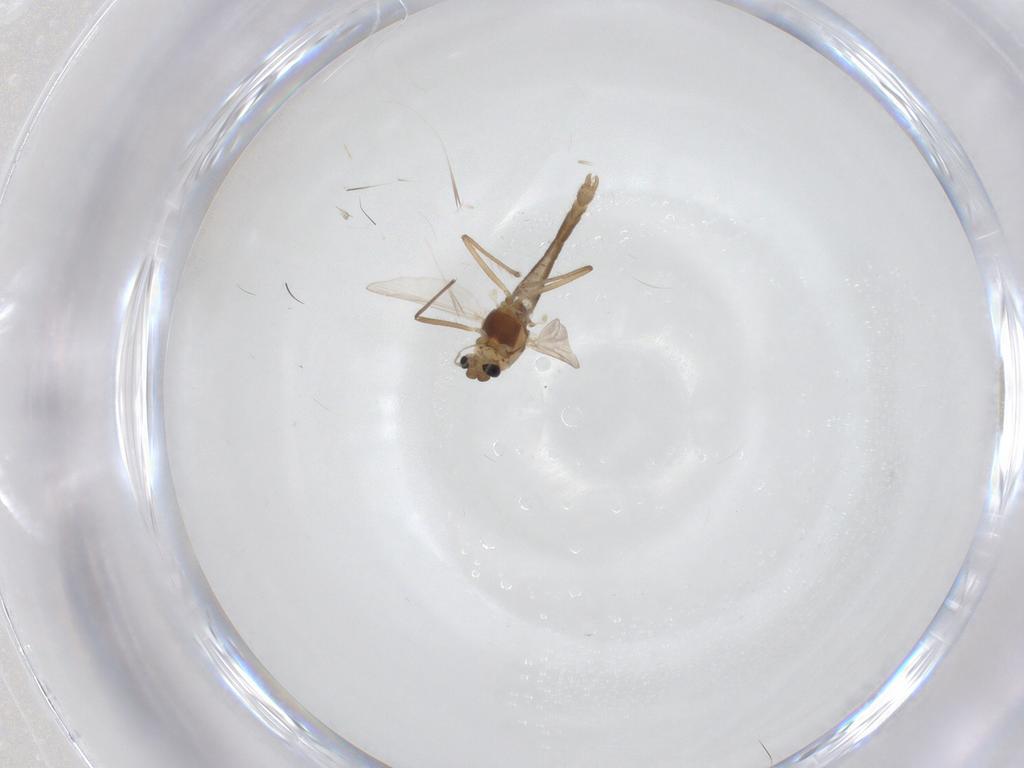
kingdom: Animalia
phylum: Arthropoda
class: Insecta
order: Diptera
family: Chironomidae
